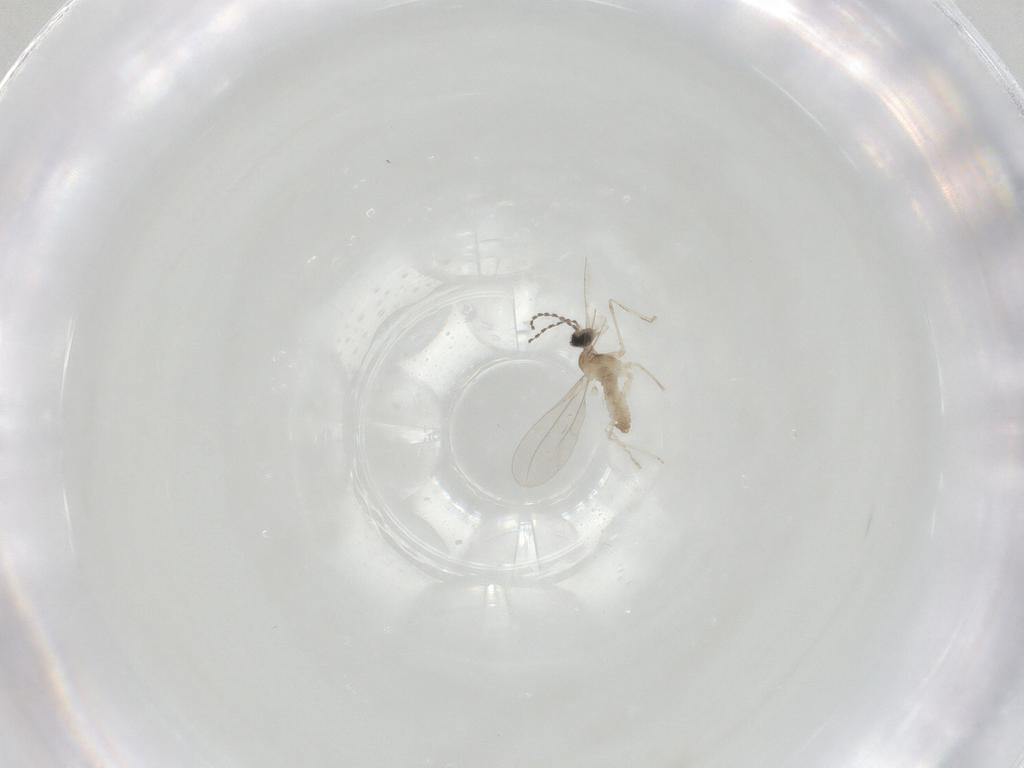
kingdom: Animalia
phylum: Arthropoda
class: Insecta
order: Diptera
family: Cecidomyiidae
